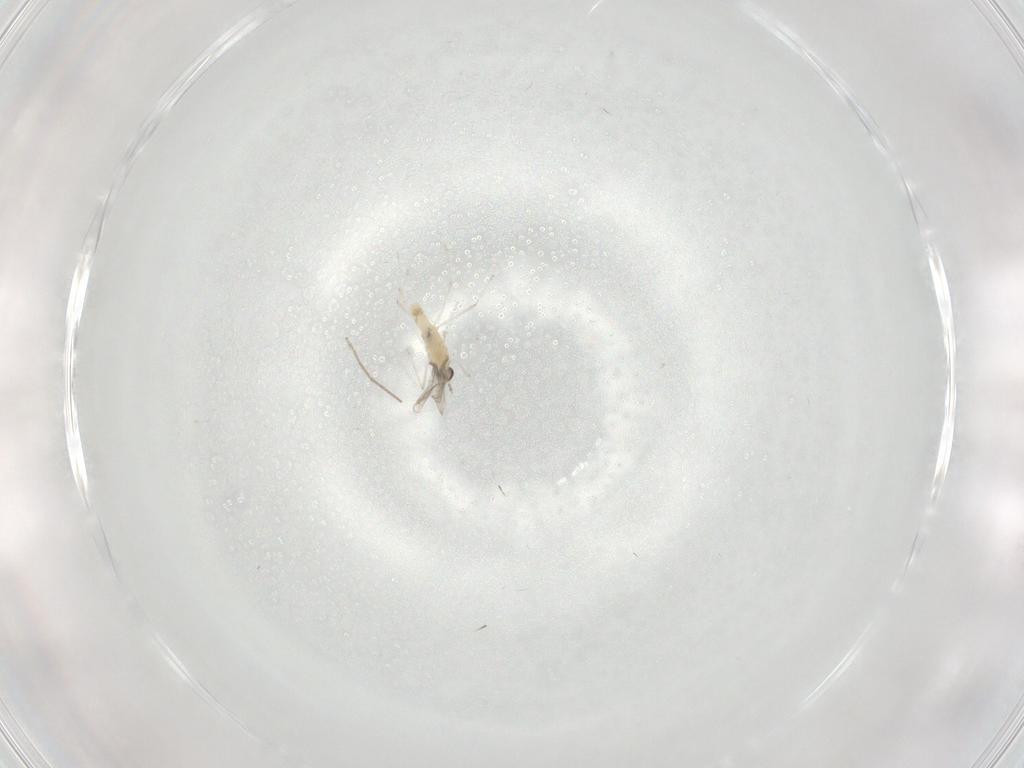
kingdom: Animalia
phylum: Arthropoda
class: Insecta
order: Diptera
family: Cecidomyiidae
